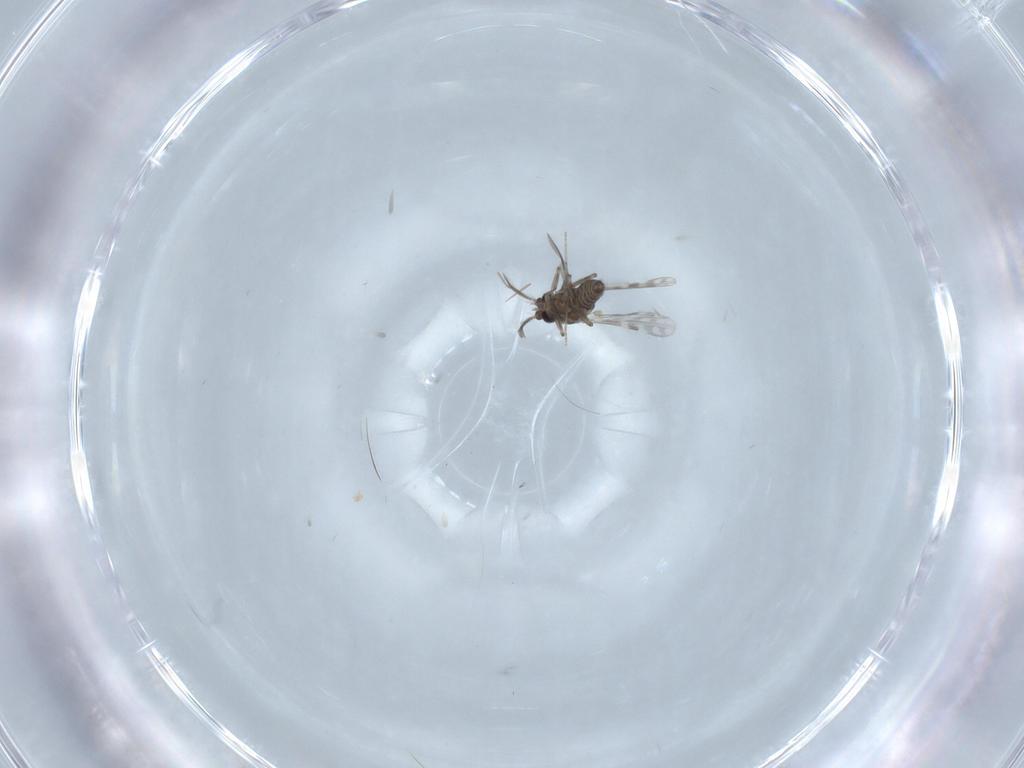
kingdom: Animalia
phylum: Arthropoda
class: Insecta
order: Diptera
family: Ceratopogonidae
